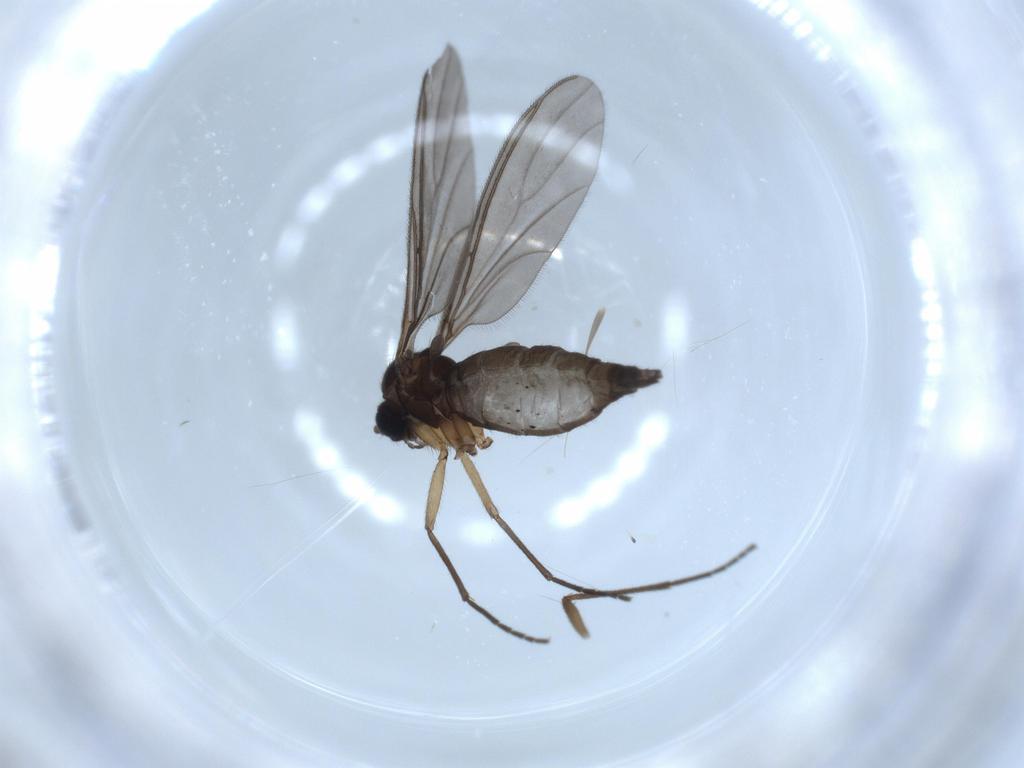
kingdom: Animalia
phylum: Arthropoda
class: Insecta
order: Diptera
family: Sciaridae
